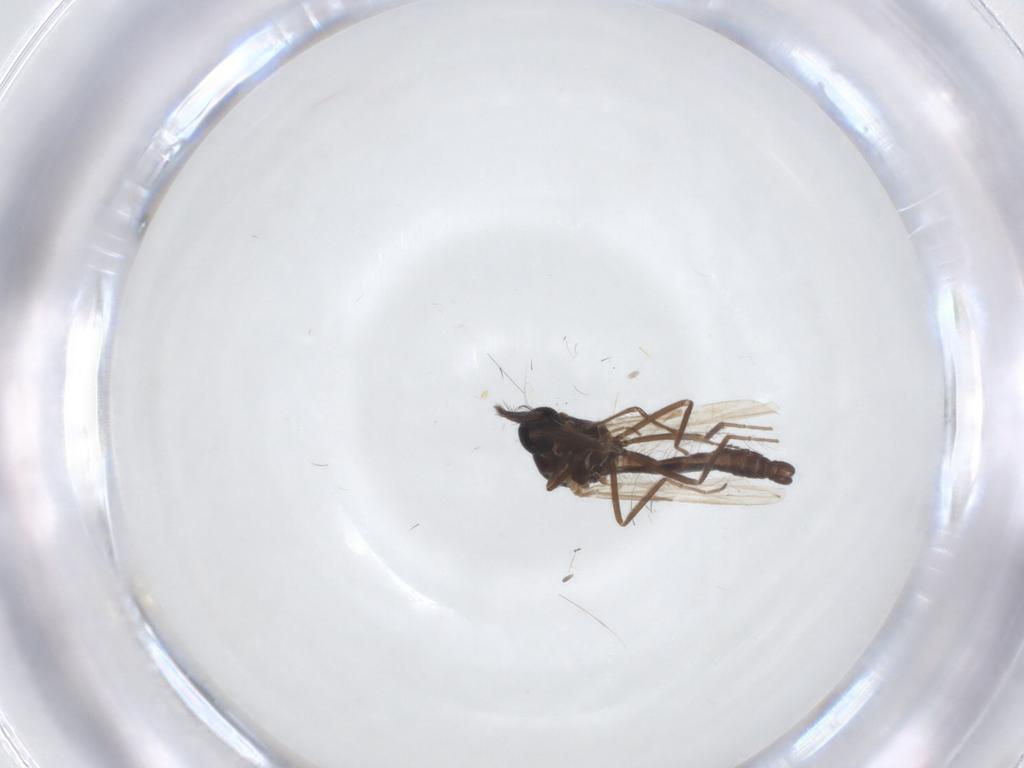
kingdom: Animalia
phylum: Arthropoda
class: Insecta
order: Diptera
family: Ceratopogonidae
